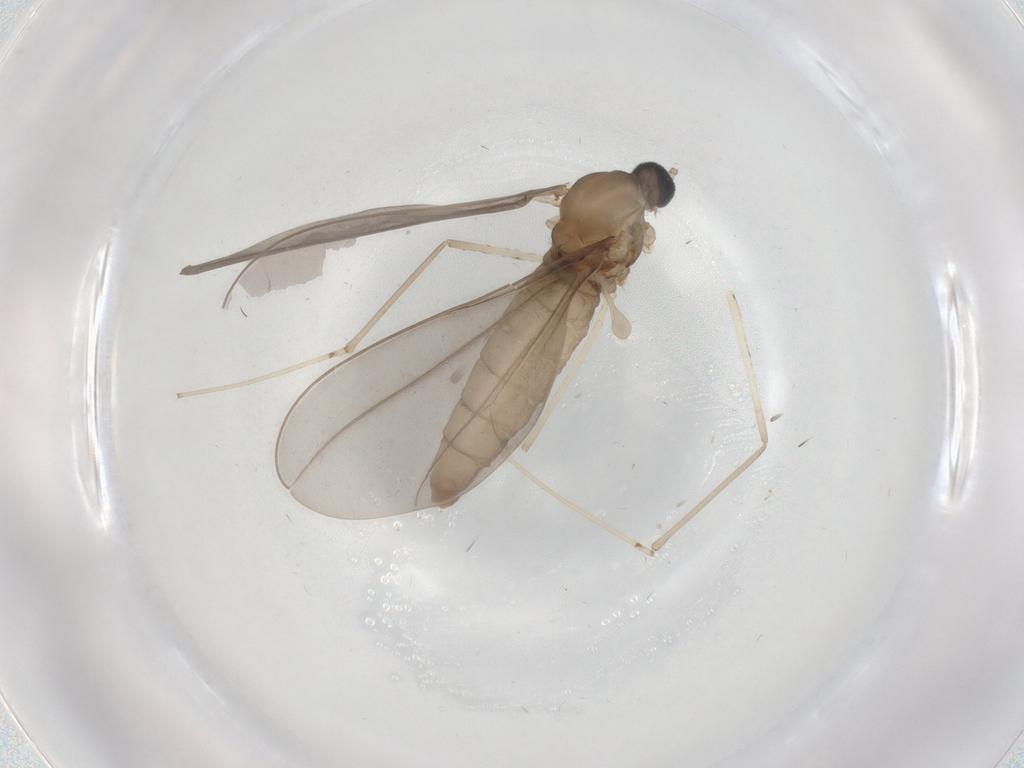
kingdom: Animalia
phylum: Arthropoda
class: Insecta
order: Diptera
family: Cecidomyiidae
